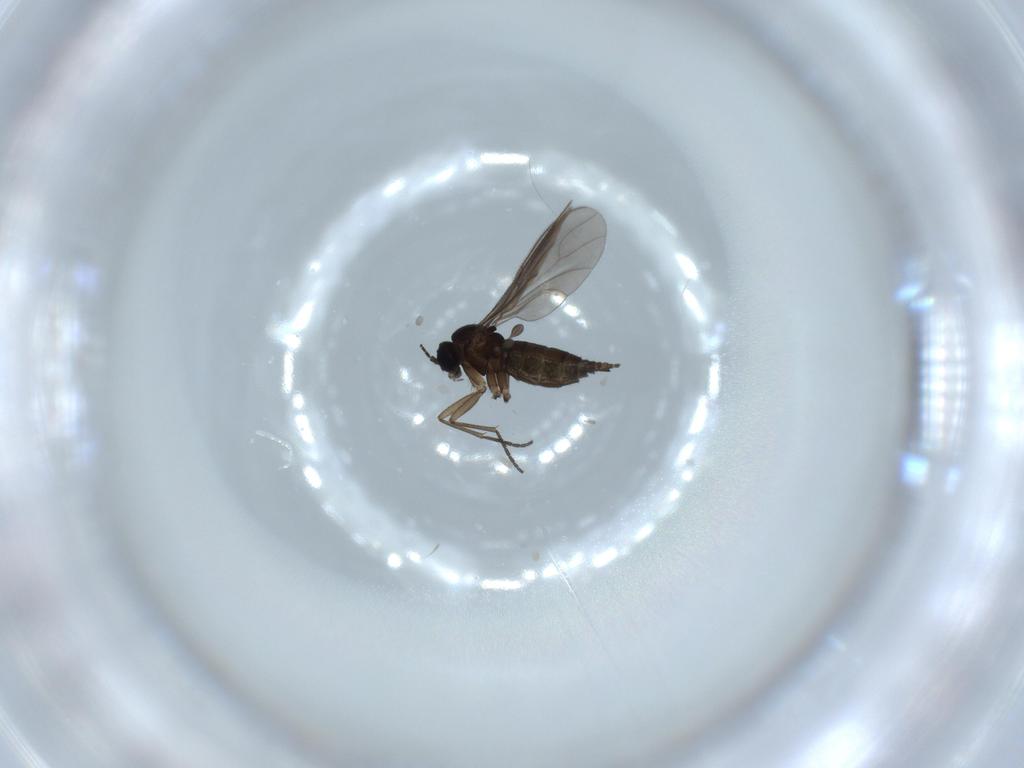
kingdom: Animalia
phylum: Arthropoda
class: Insecta
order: Diptera
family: Sciaridae
